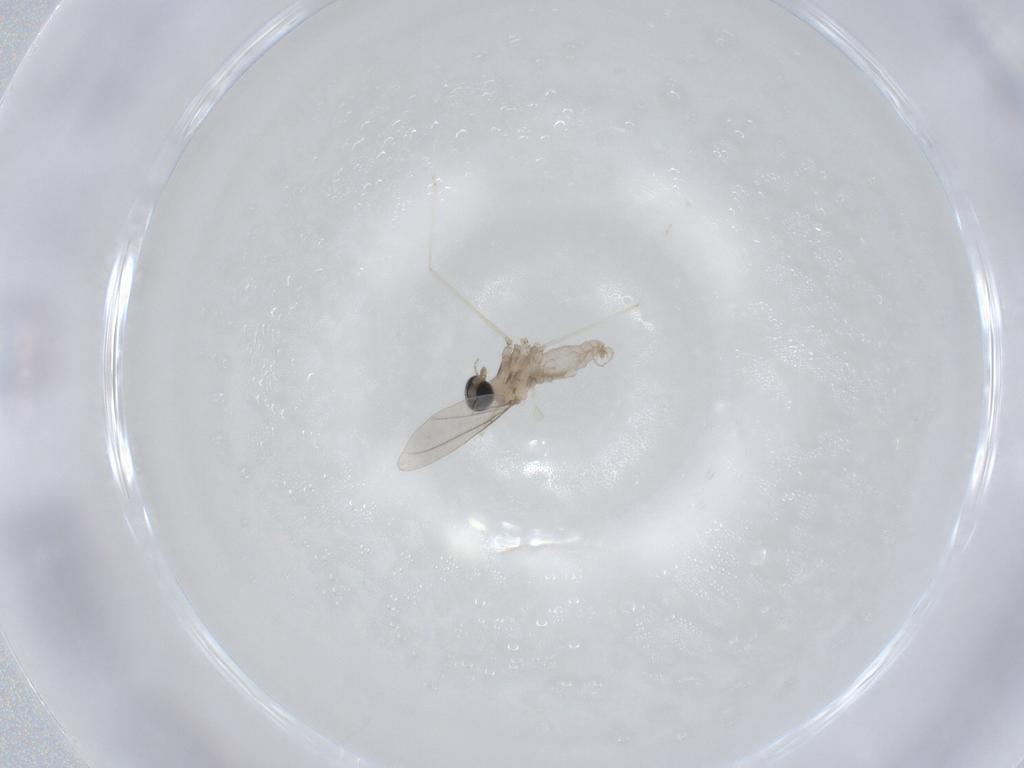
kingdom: Animalia
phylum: Arthropoda
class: Insecta
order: Diptera
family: Cecidomyiidae
